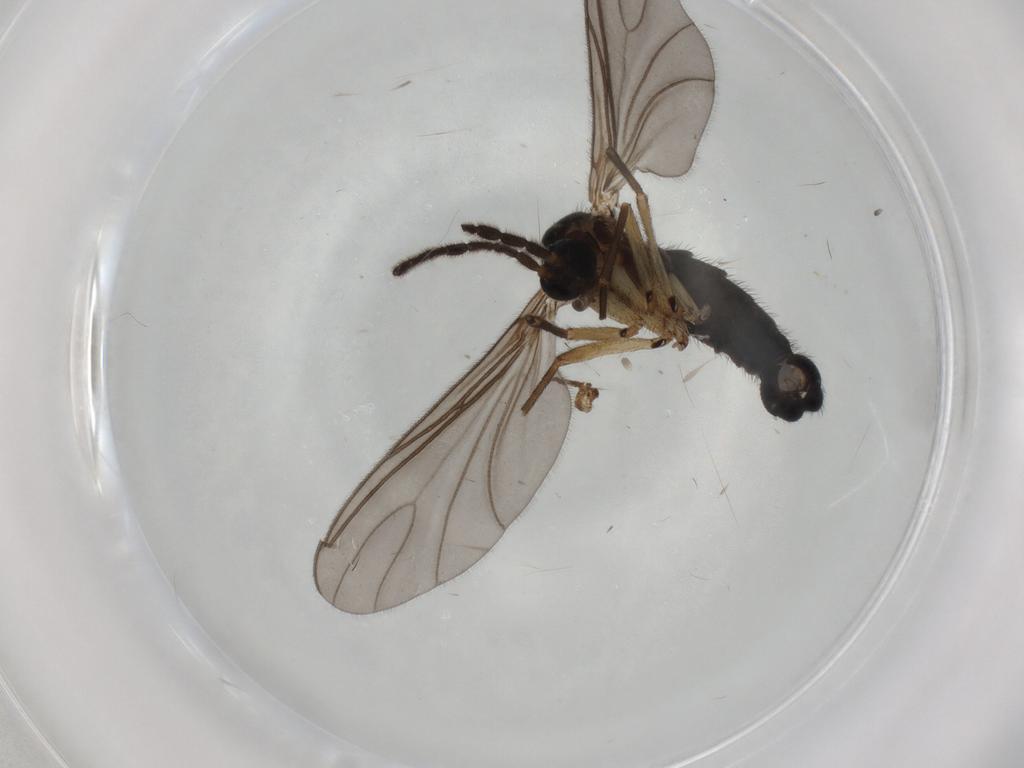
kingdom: Animalia
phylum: Arthropoda
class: Insecta
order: Diptera
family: Sciaridae
